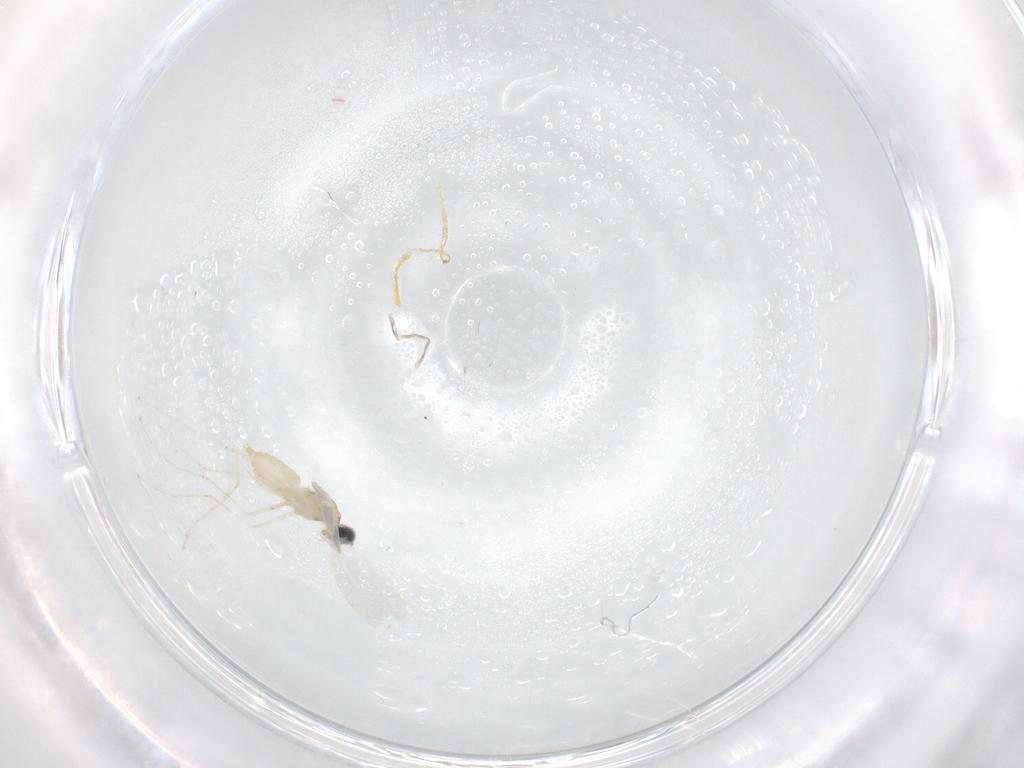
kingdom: Animalia
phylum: Arthropoda
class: Insecta
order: Diptera
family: Cecidomyiidae
